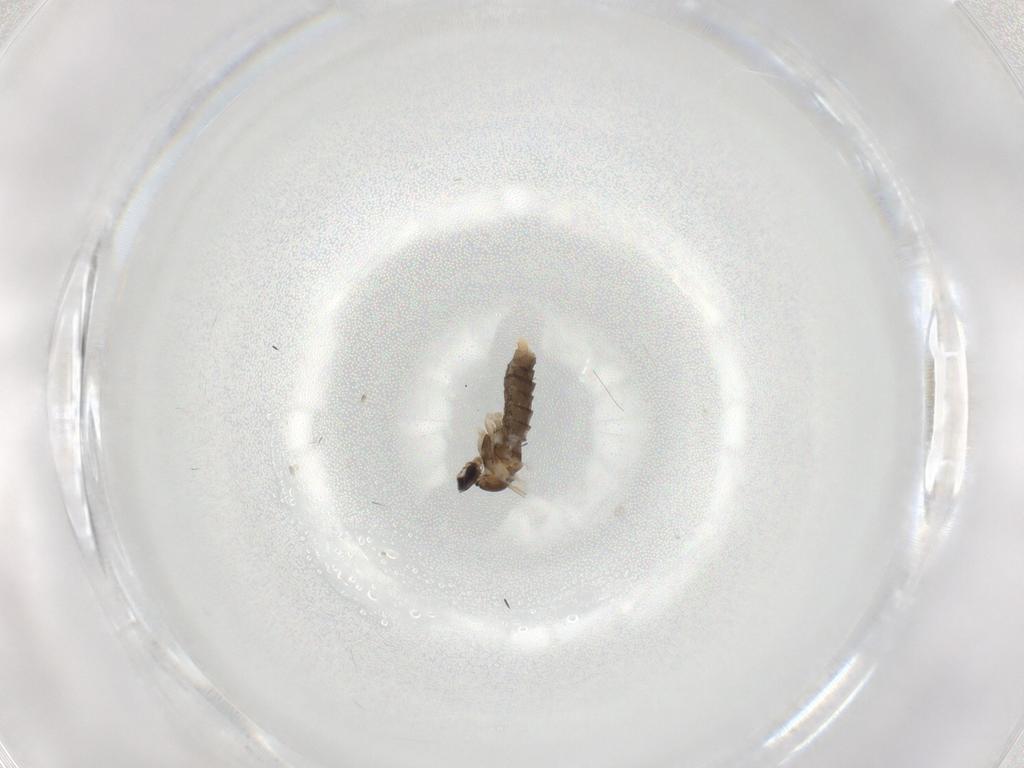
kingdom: Animalia
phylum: Arthropoda
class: Insecta
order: Diptera
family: Cecidomyiidae
